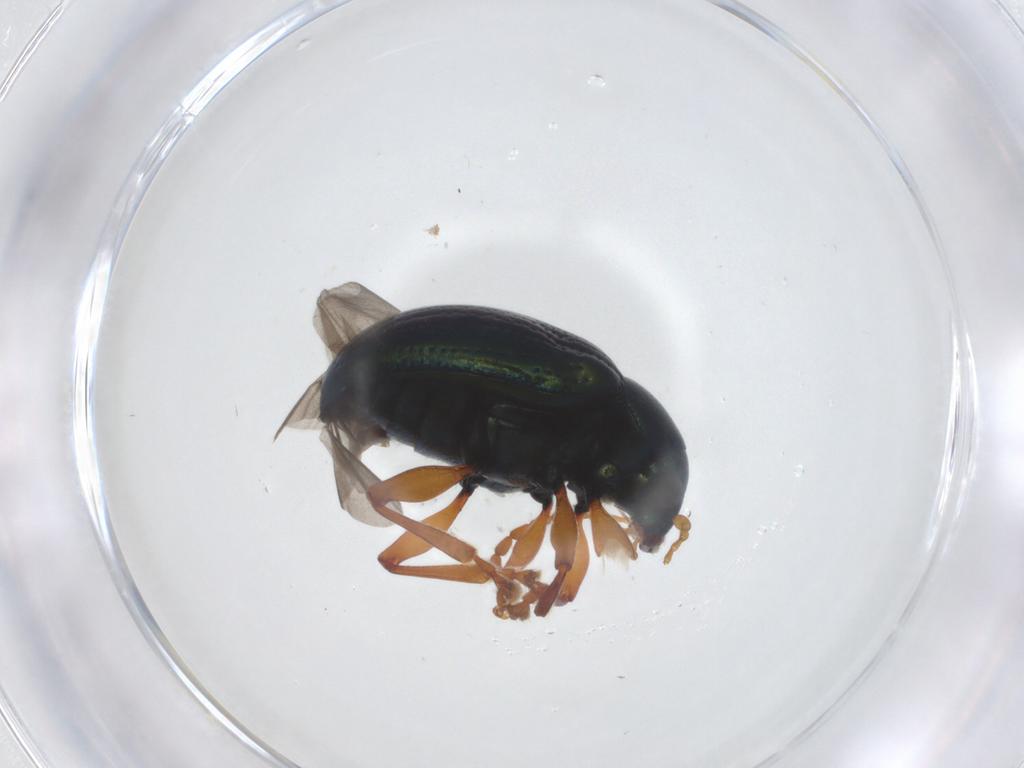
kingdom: Animalia
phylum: Arthropoda
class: Insecta
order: Coleoptera
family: Chrysomelidae
